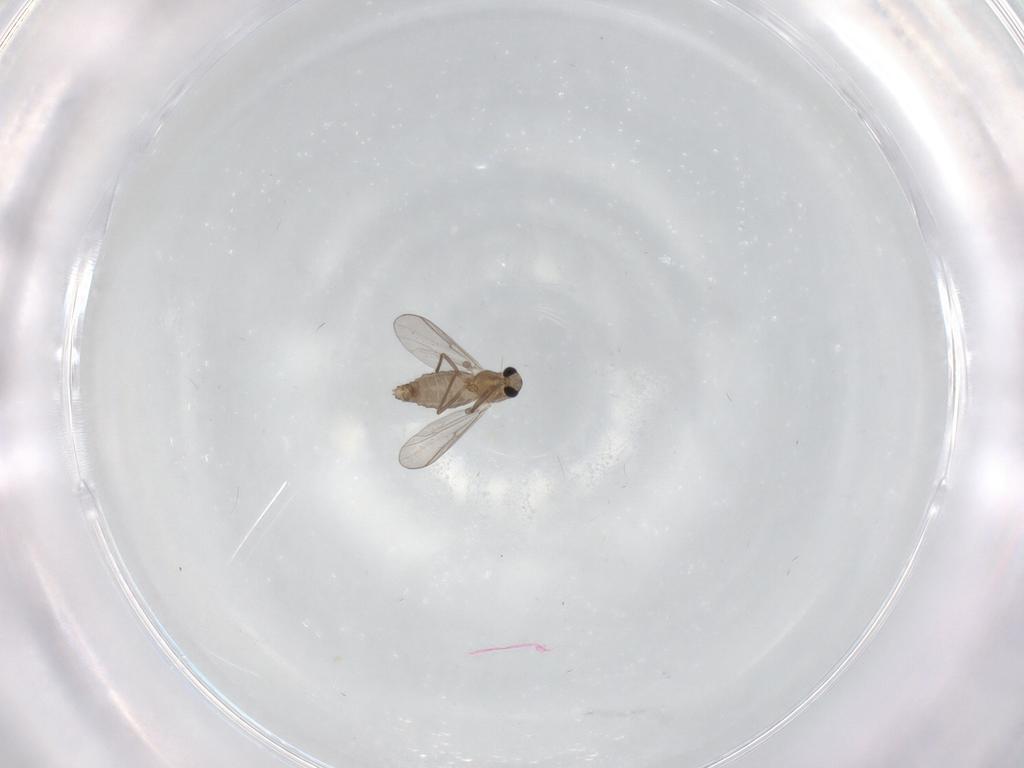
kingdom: Animalia
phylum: Arthropoda
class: Insecta
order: Diptera
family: Chironomidae
